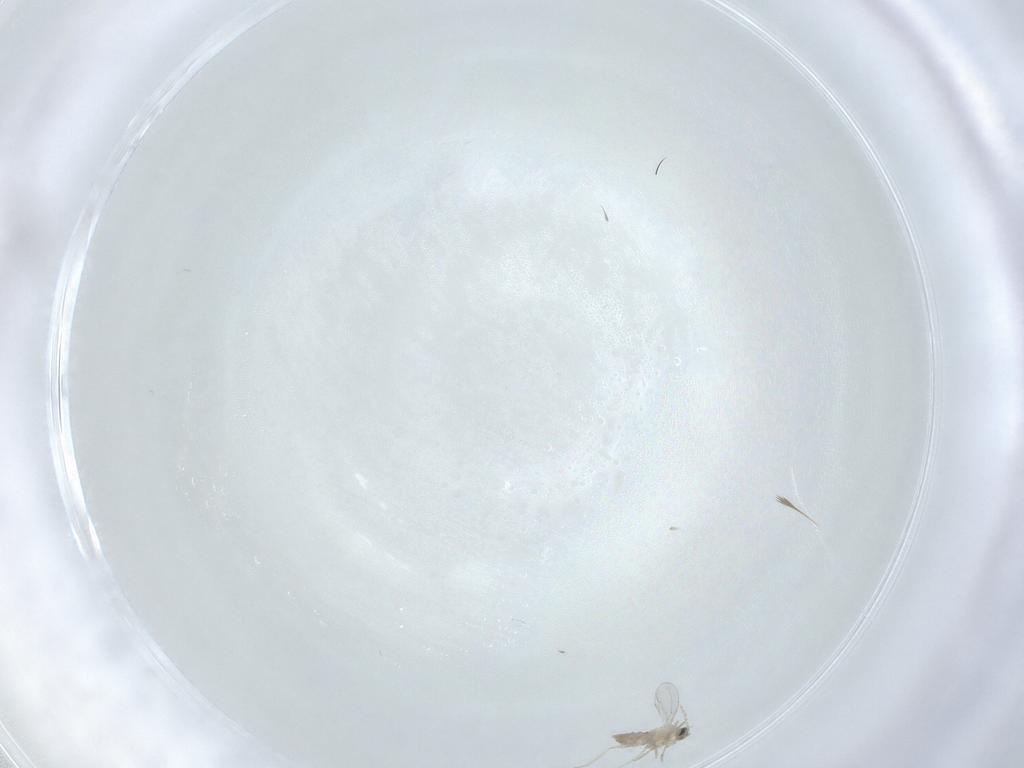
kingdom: Animalia
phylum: Arthropoda
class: Insecta
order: Diptera
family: Cecidomyiidae
